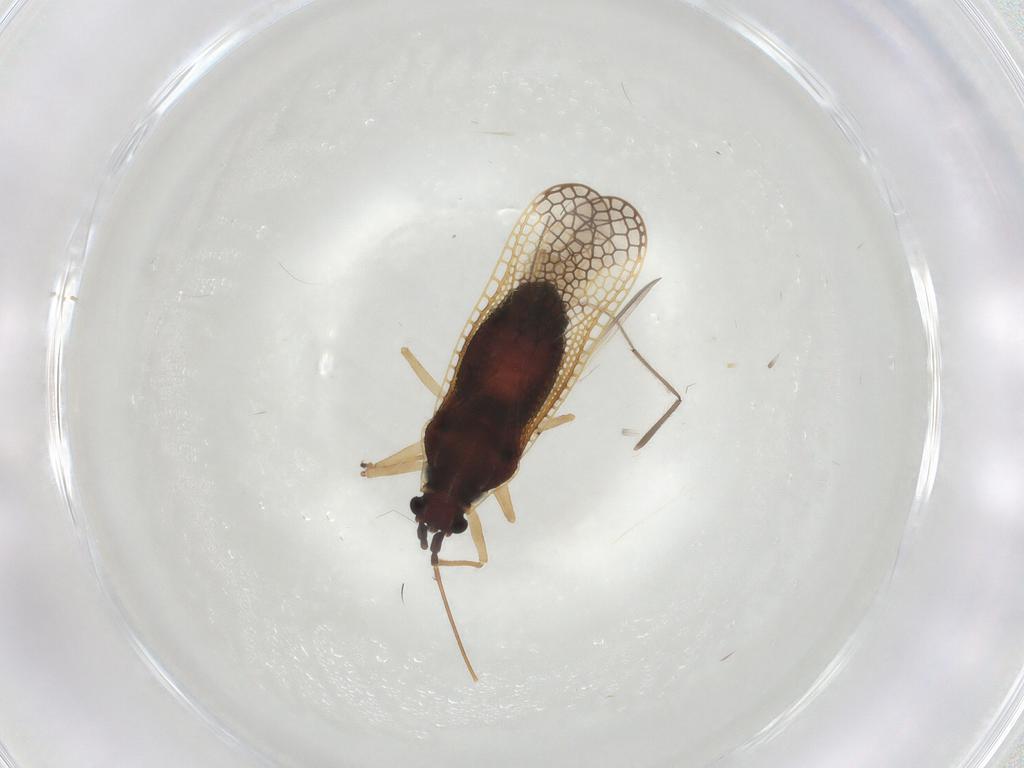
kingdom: Animalia
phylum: Arthropoda
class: Insecta
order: Hemiptera
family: Tingidae
